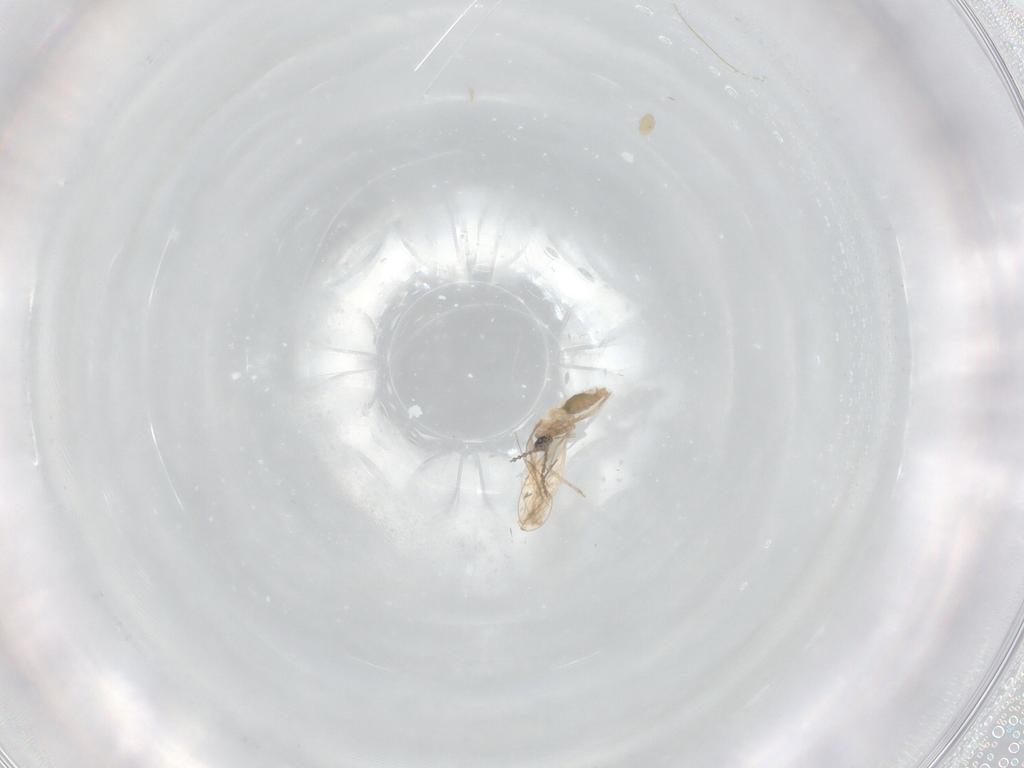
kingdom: Animalia
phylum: Arthropoda
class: Insecta
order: Diptera
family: Cecidomyiidae
